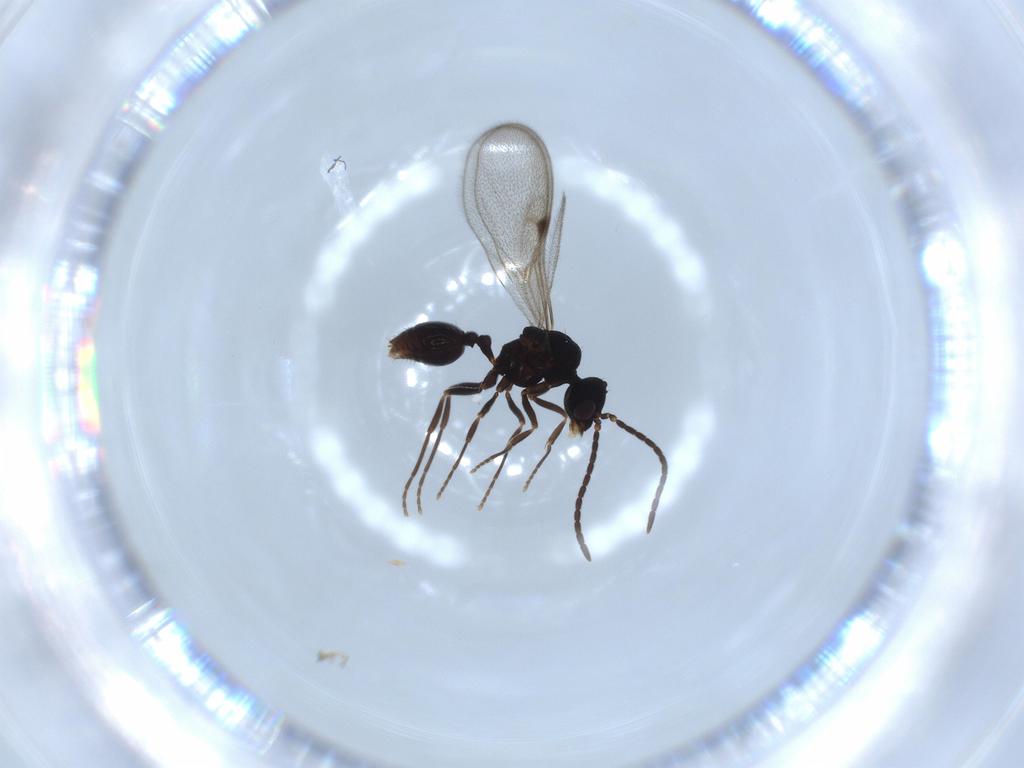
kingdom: Animalia
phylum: Arthropoda
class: Insecta
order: Hymenoptera
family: Formicidae
